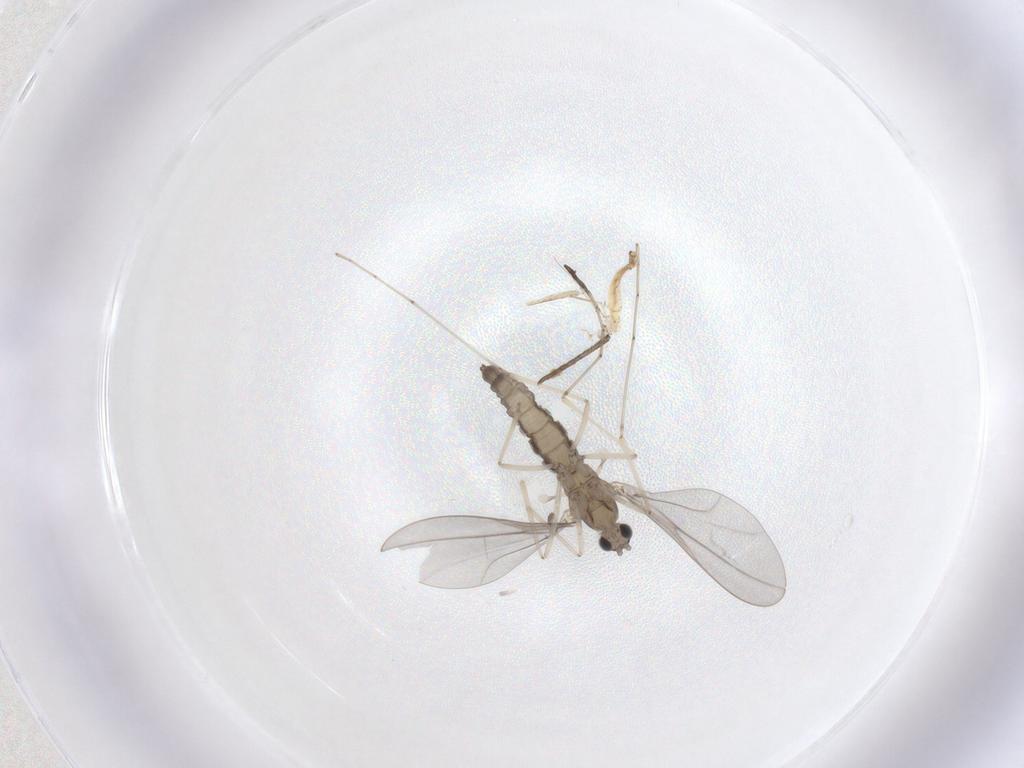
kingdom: Animalia
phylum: Arthropoda
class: Insecta
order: Diptera
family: Cecidomyiidae
